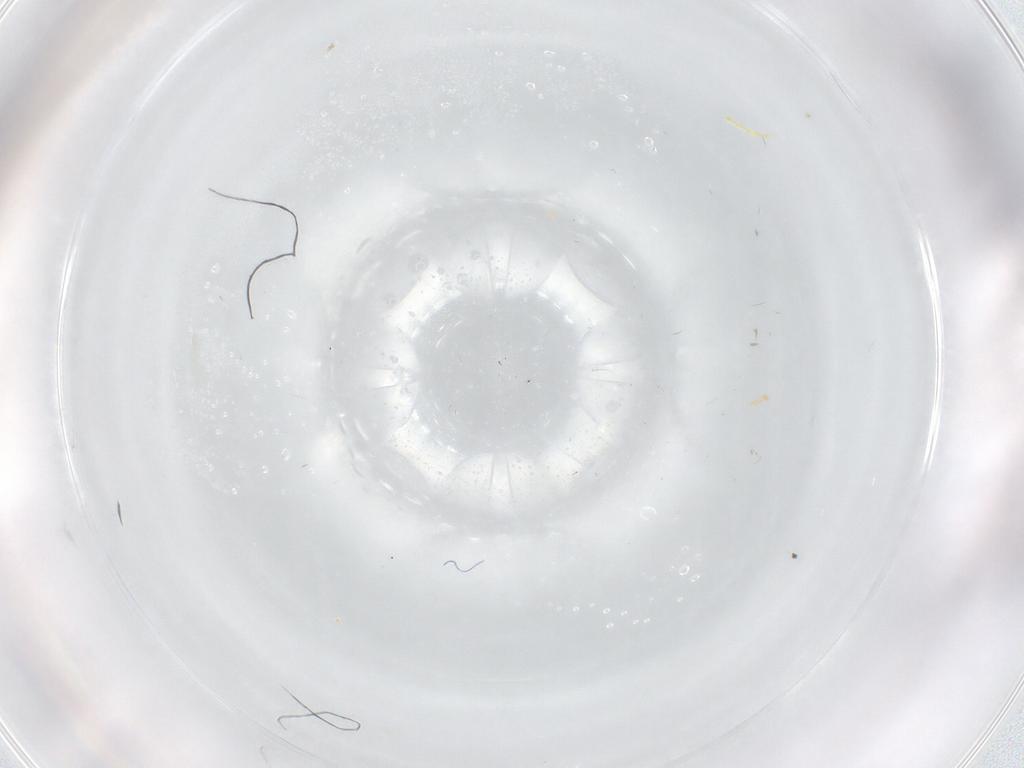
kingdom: Animalia
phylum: Arthropoda
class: Insecta
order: Diptera
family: Phoridae
